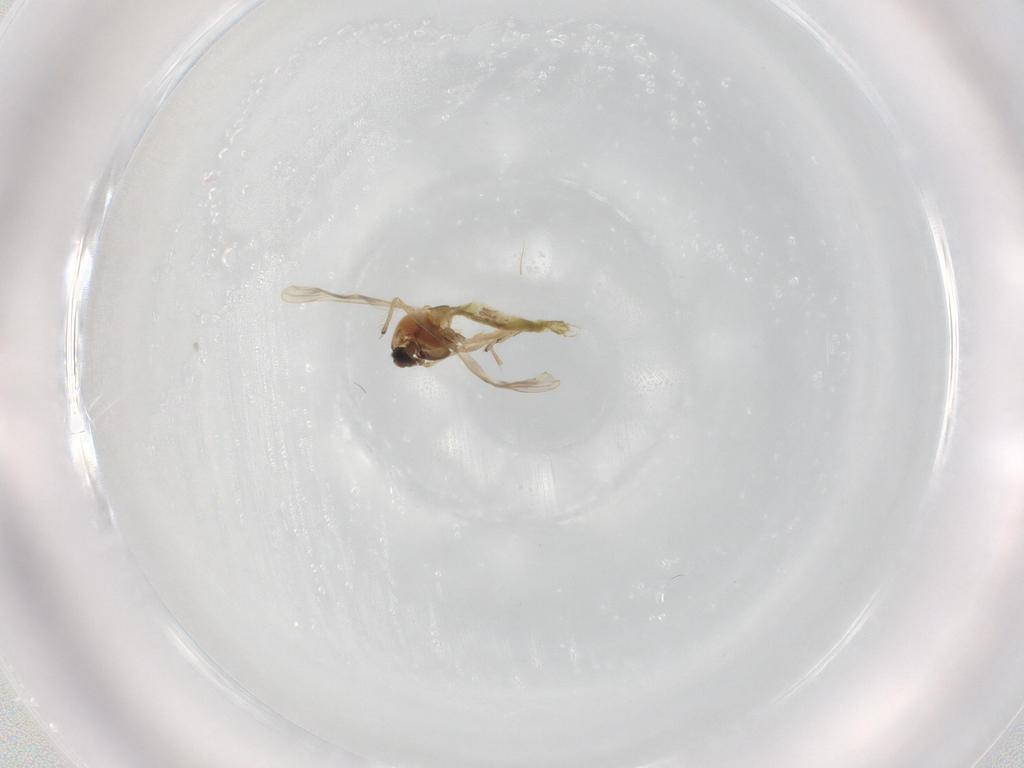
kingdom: Animalia
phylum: Arthropoda
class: Insecta
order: Diptera
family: Chironomidae
